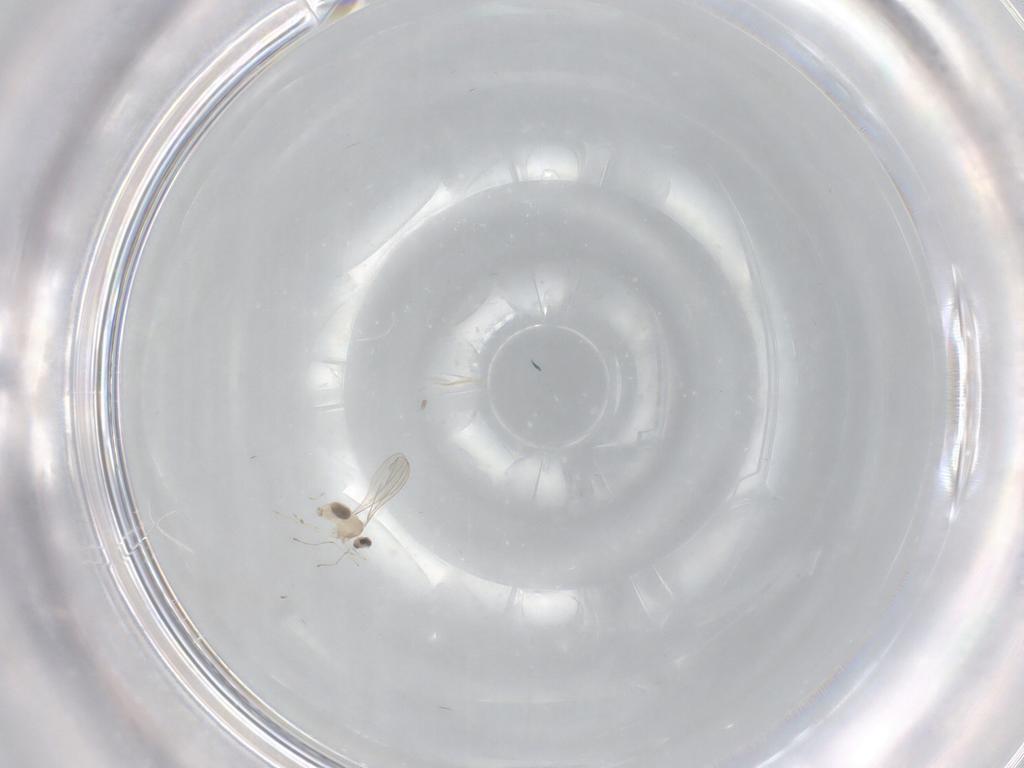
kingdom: Animalia
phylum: Arthropoda
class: Insecta
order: Diptera
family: Cecidomyiidae
